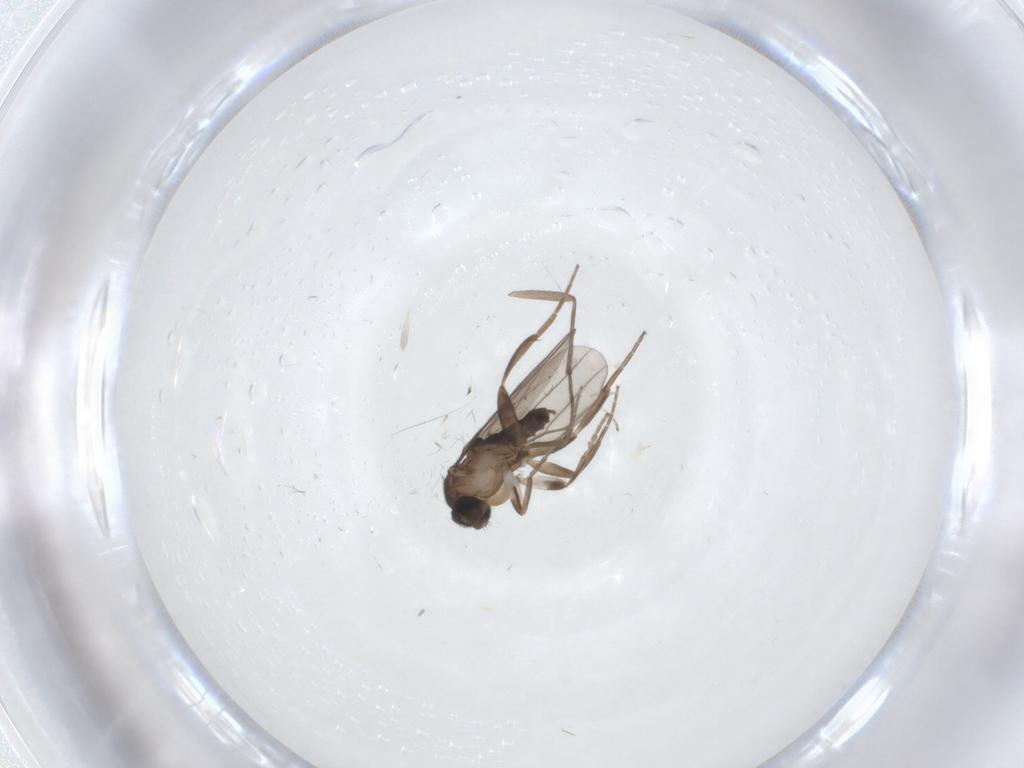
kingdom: Animalia
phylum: Arthropoda
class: Insecta
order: Diptera
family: Cecidomyiidae
